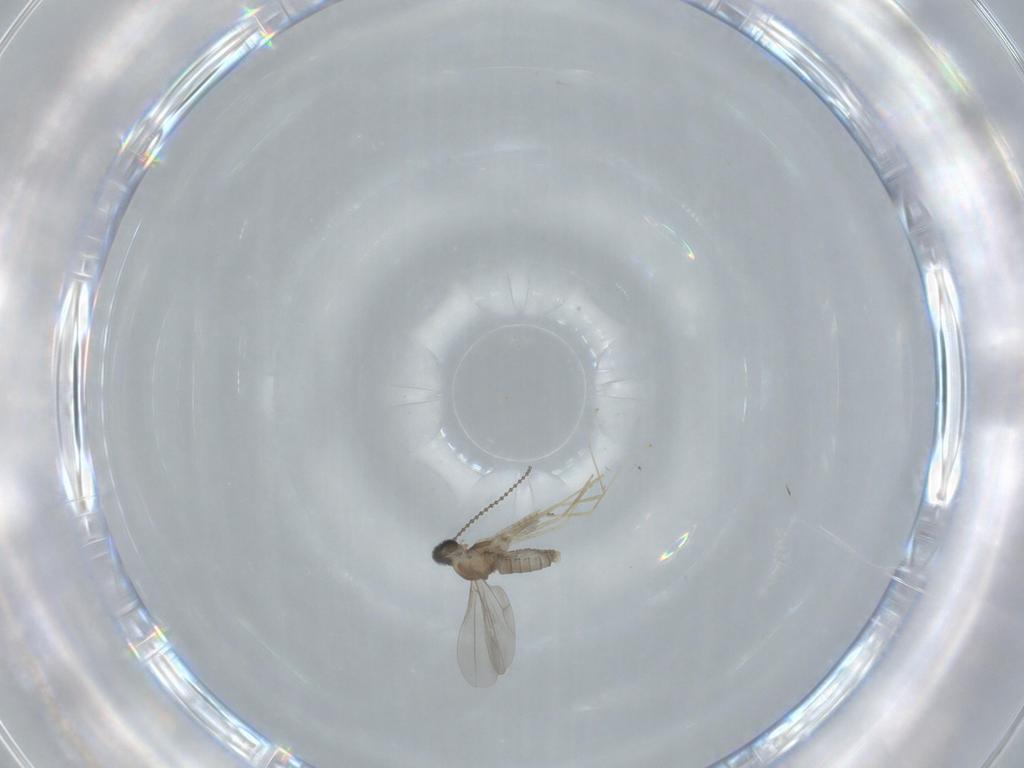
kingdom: Animalia
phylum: Arthropoda
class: Insecta
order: Diptera
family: Cecidomyiidae
